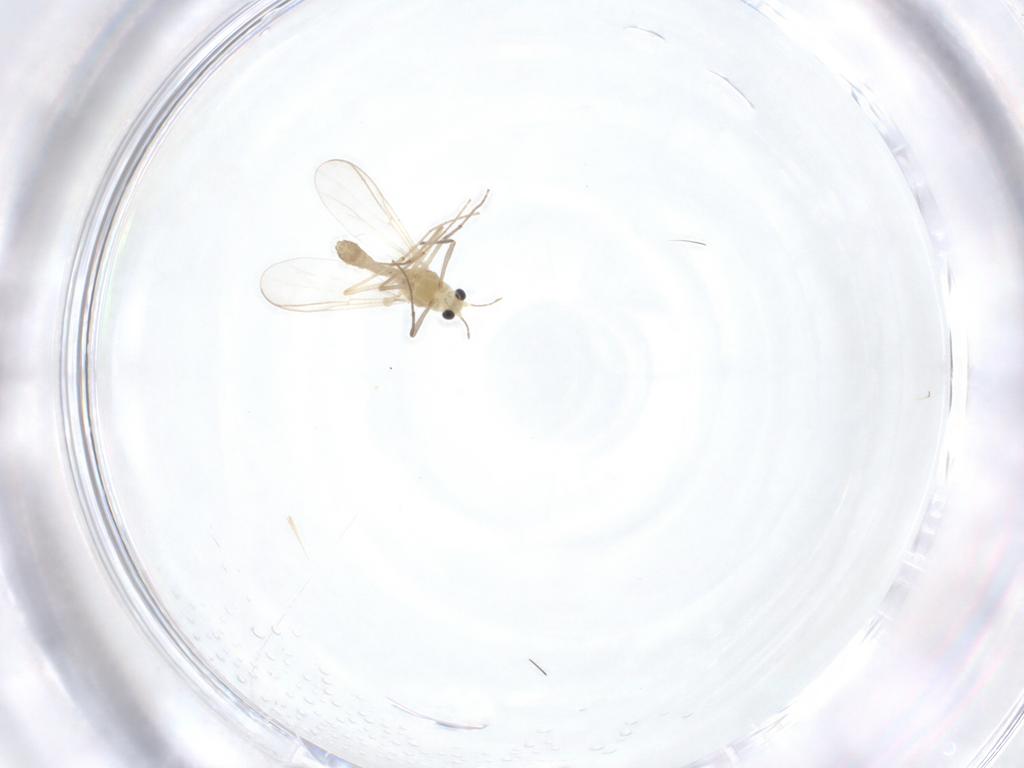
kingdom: Animalia
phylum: Arthropoda
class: Insecta
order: Diptera
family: Chironomidae
